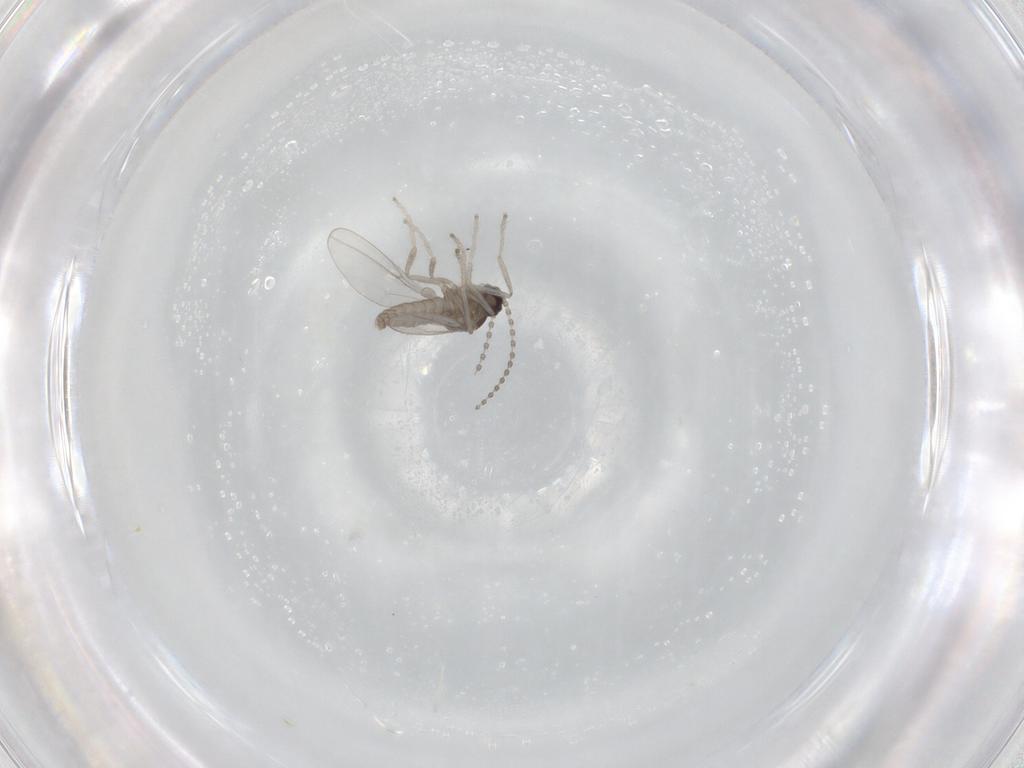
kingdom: Animalia
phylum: Arthropoda
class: Insecta
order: Diptera
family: Cecidomyiidae
